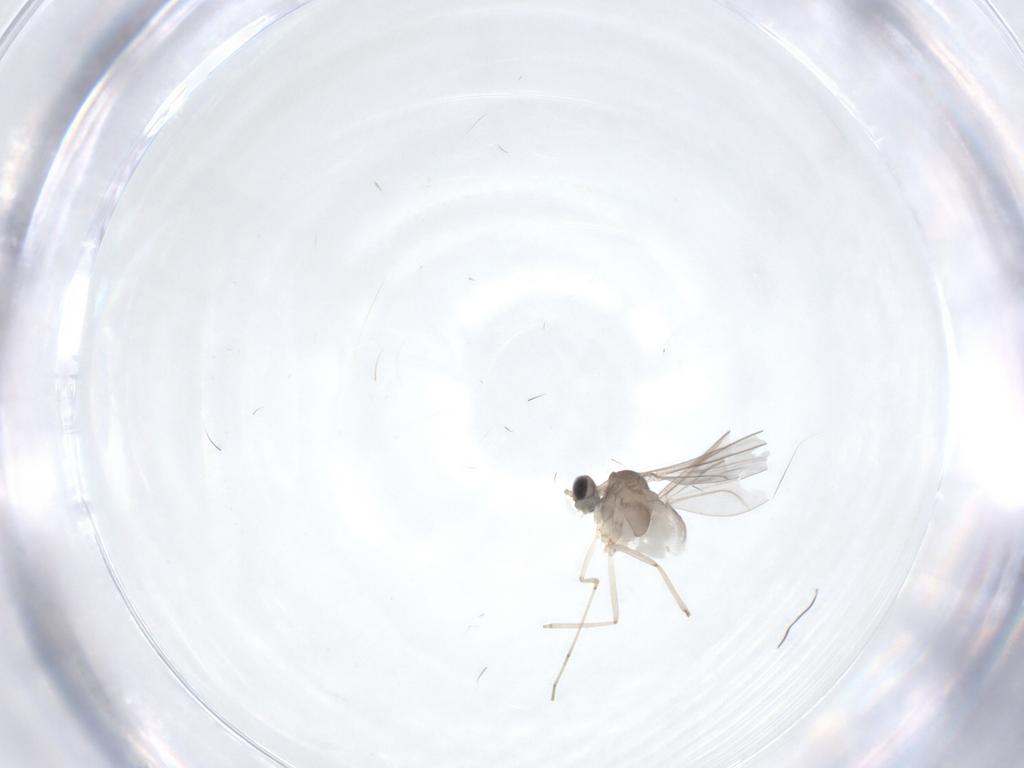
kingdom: Animalia
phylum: Arthropoda
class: Insecta
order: Diptera
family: Cecidomyiidae
